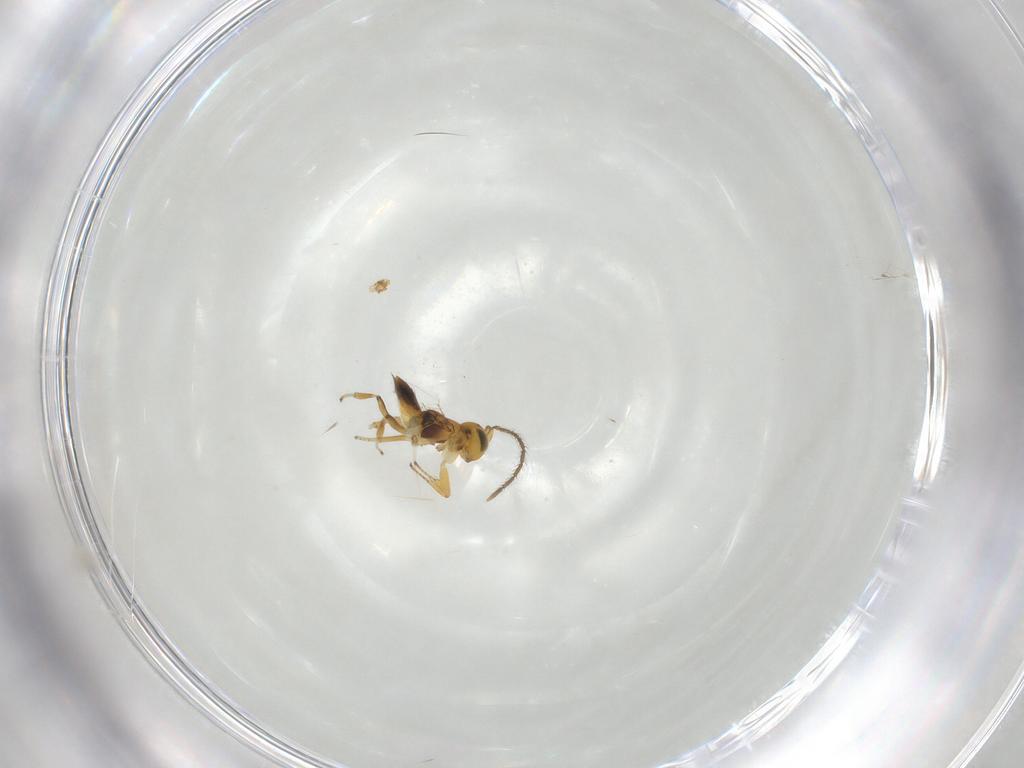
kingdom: Animalia
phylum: Arthropoda
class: Insecta
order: Hymenoptera
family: Encyrtidae
